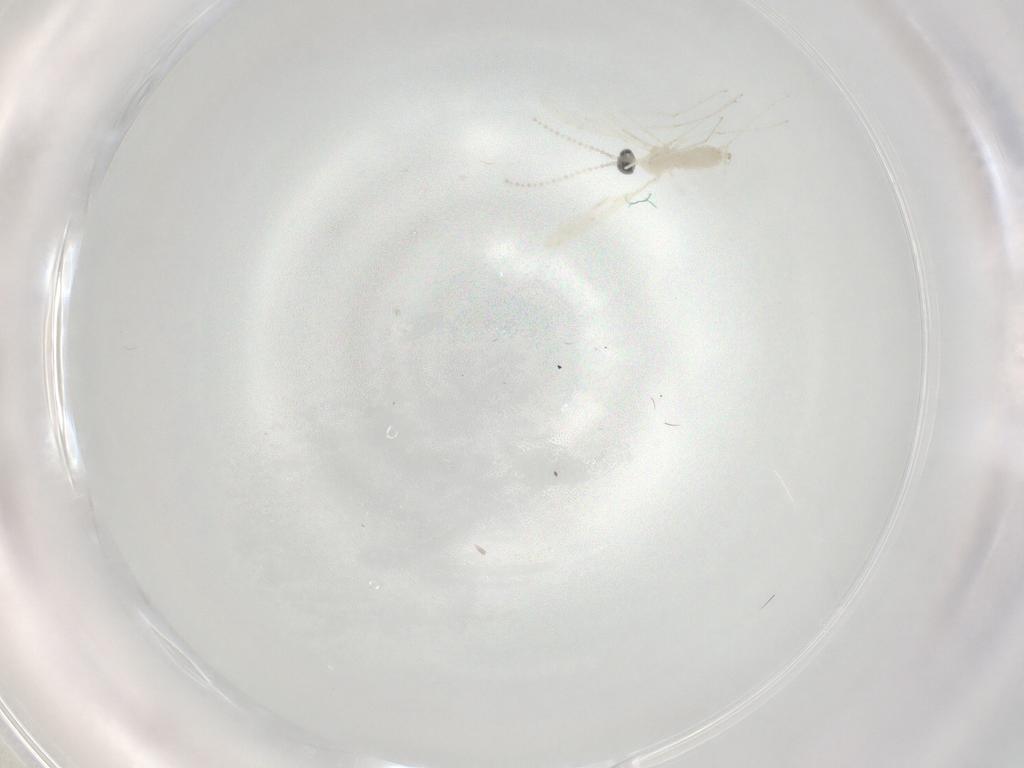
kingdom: Animalia
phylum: Arthropoda
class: Insecta
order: Diptera
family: Cecidomyiidae
